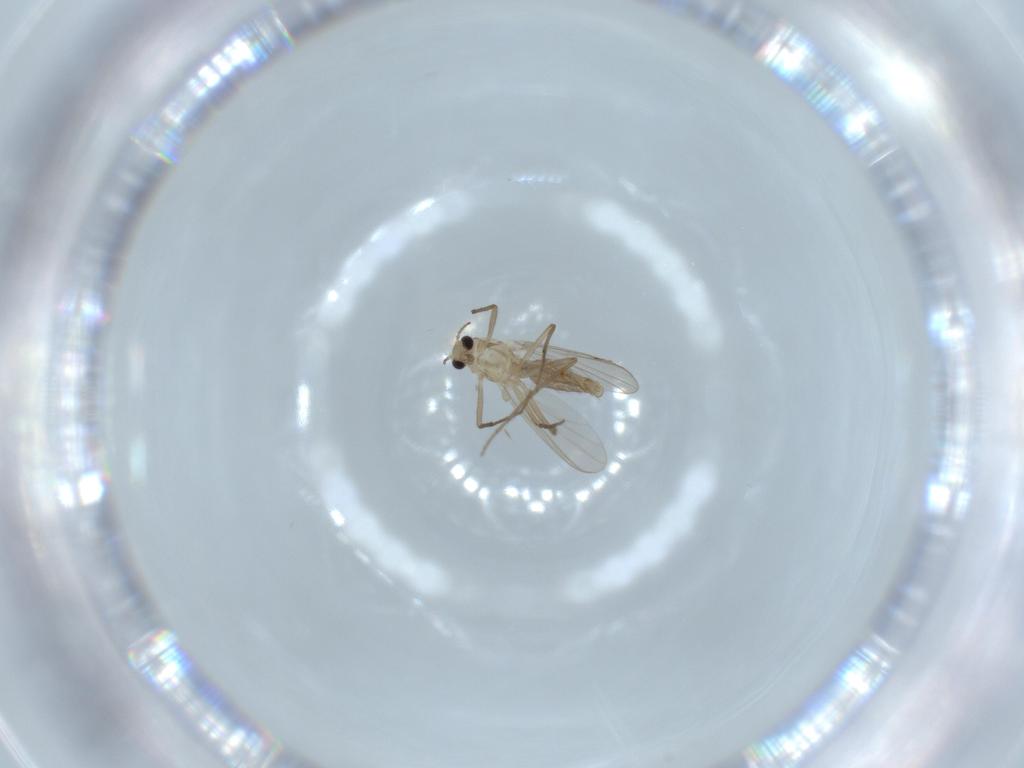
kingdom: Animalia
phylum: Arthropoda
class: Insecta
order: Diptera
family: Chironomidae
